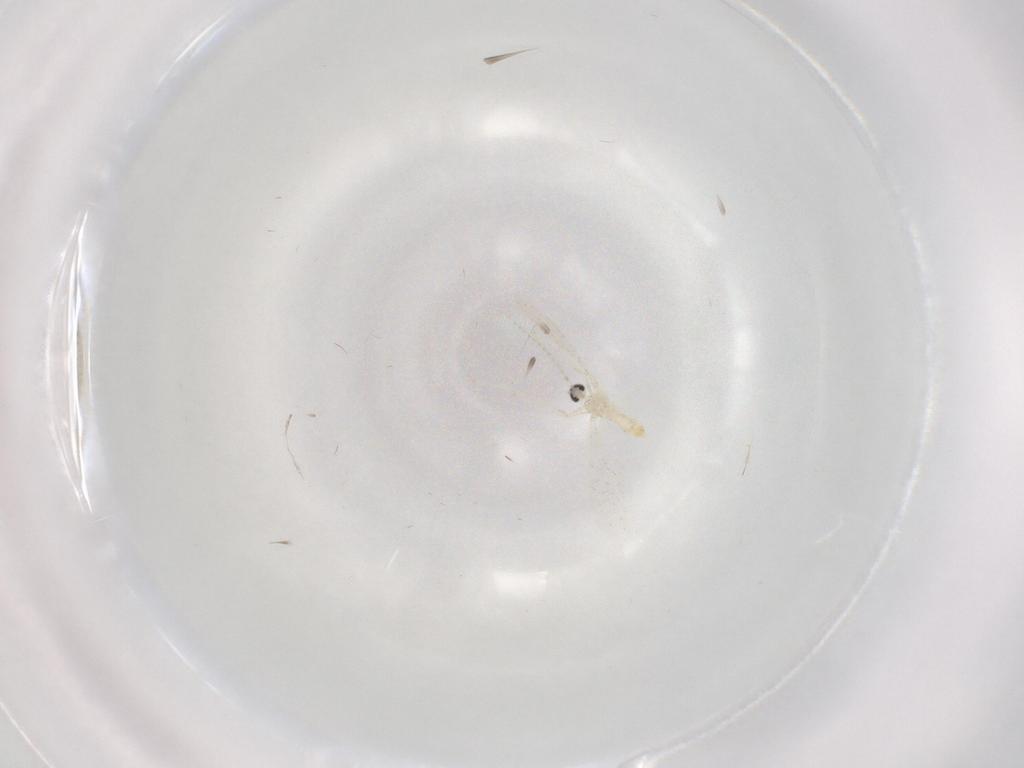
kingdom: Animalia
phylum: Arthropoda
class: Insecta
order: Diptera
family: Cecidomyiidae
